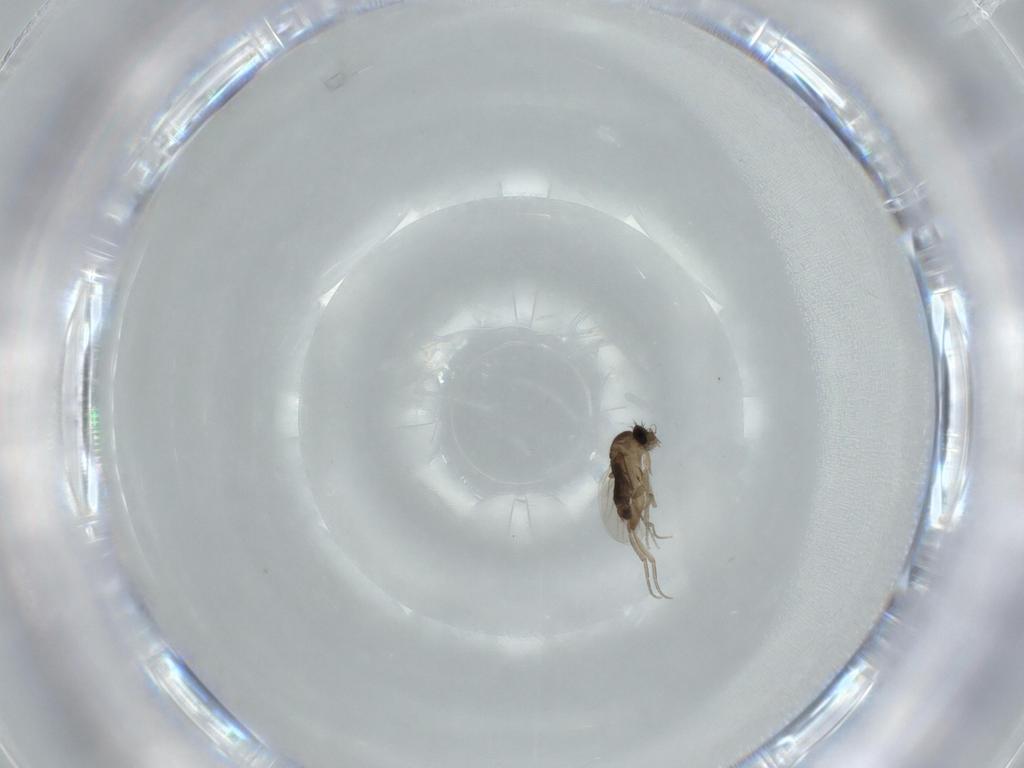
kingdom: Animalia
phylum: Arthropoda
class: Insecta
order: Diptera
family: Phoridae
